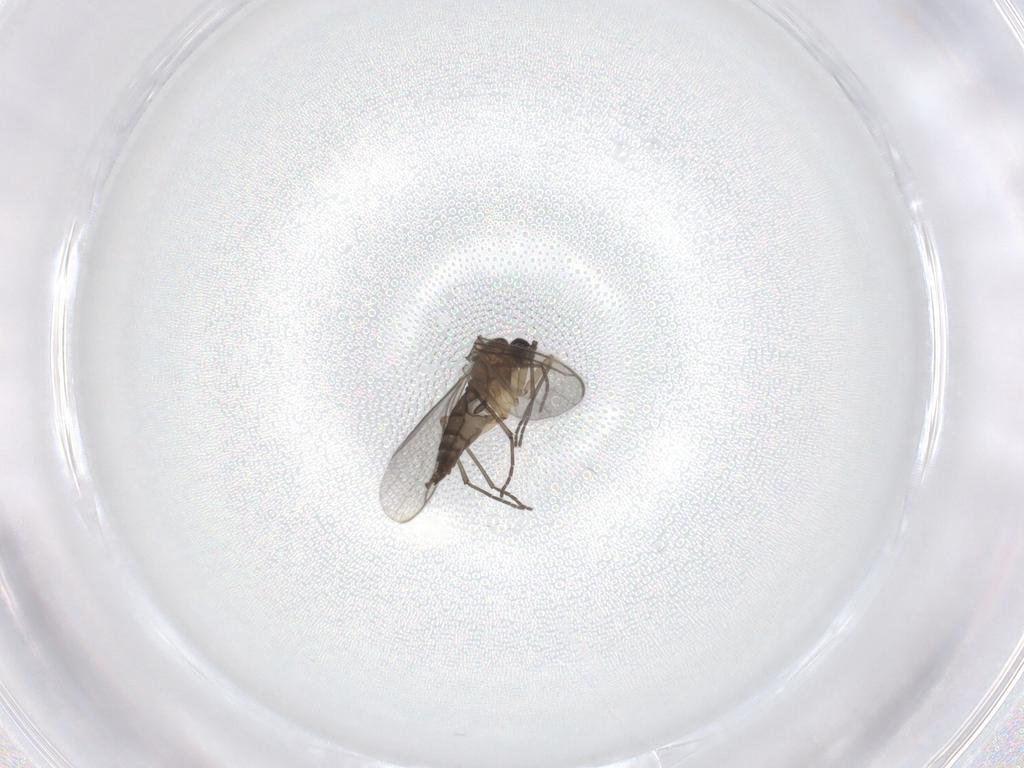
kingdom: Animalia
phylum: Arthropoda
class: Insecta
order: Diptera
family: Sciaridae
